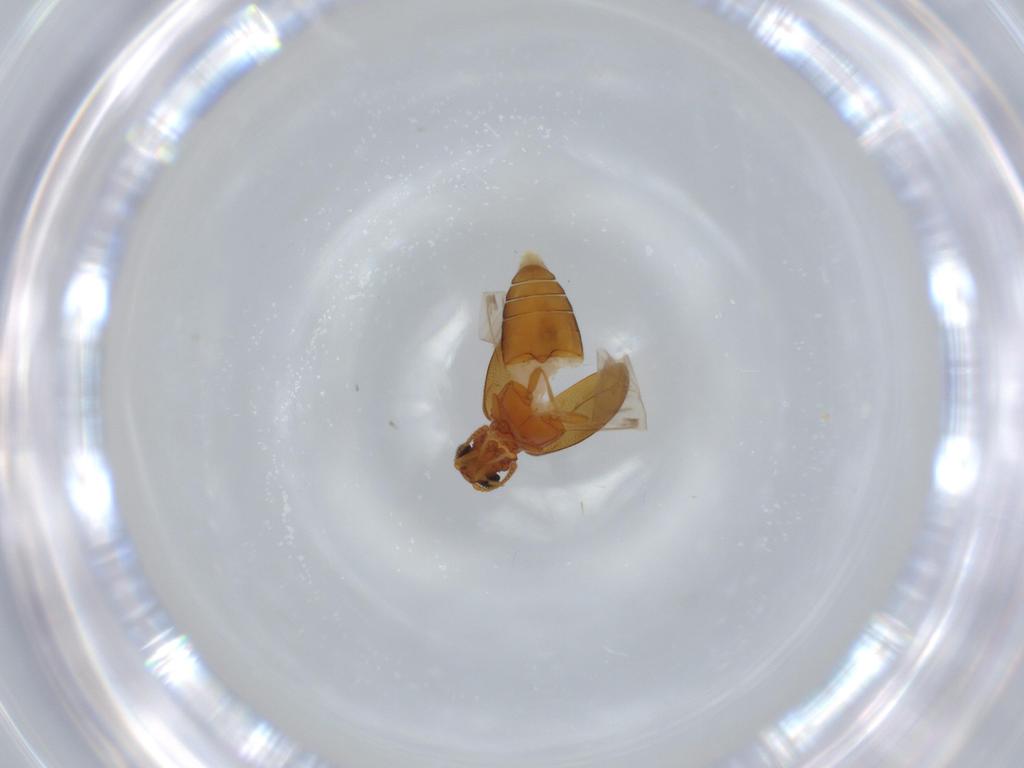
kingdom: Animalia
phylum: Arthropoda
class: Insecta
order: Coleoptera
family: Aderidae
